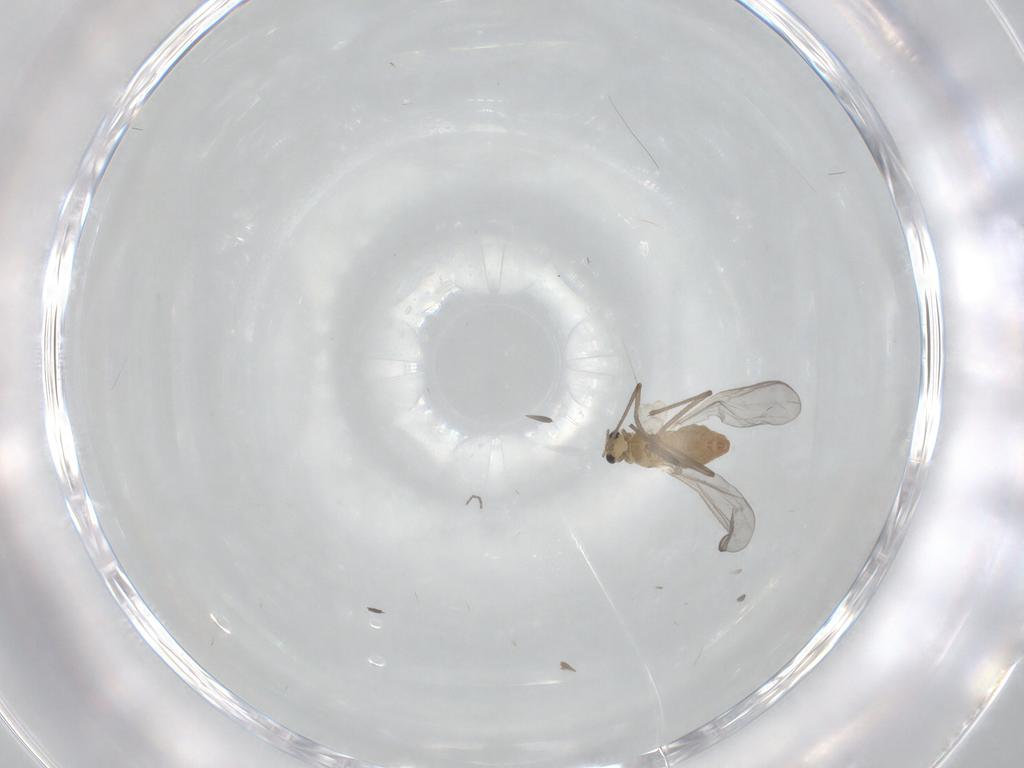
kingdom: Animalia
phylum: Arthropoda
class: Insecta
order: Diptera
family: Chironomidae
